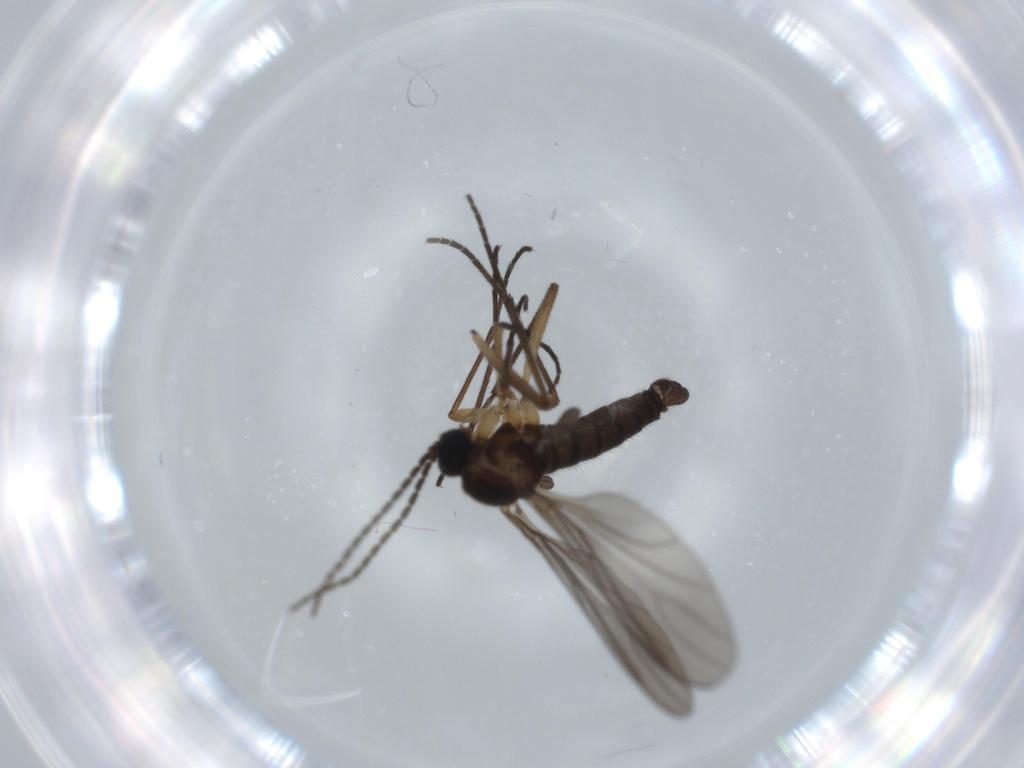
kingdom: Animalia
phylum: Arthropoda
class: Insecta
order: Diptera
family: Sciaridae
